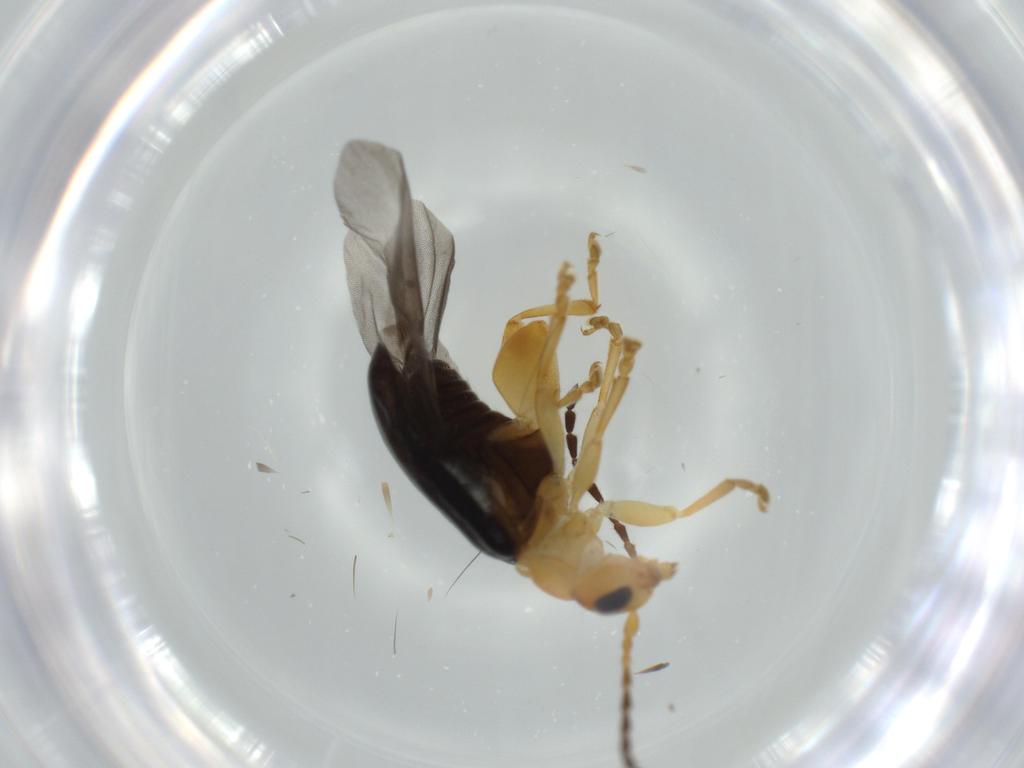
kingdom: Animalia
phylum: Arthropoda
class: Insecta
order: Coleoptera
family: Chrysomelidae
